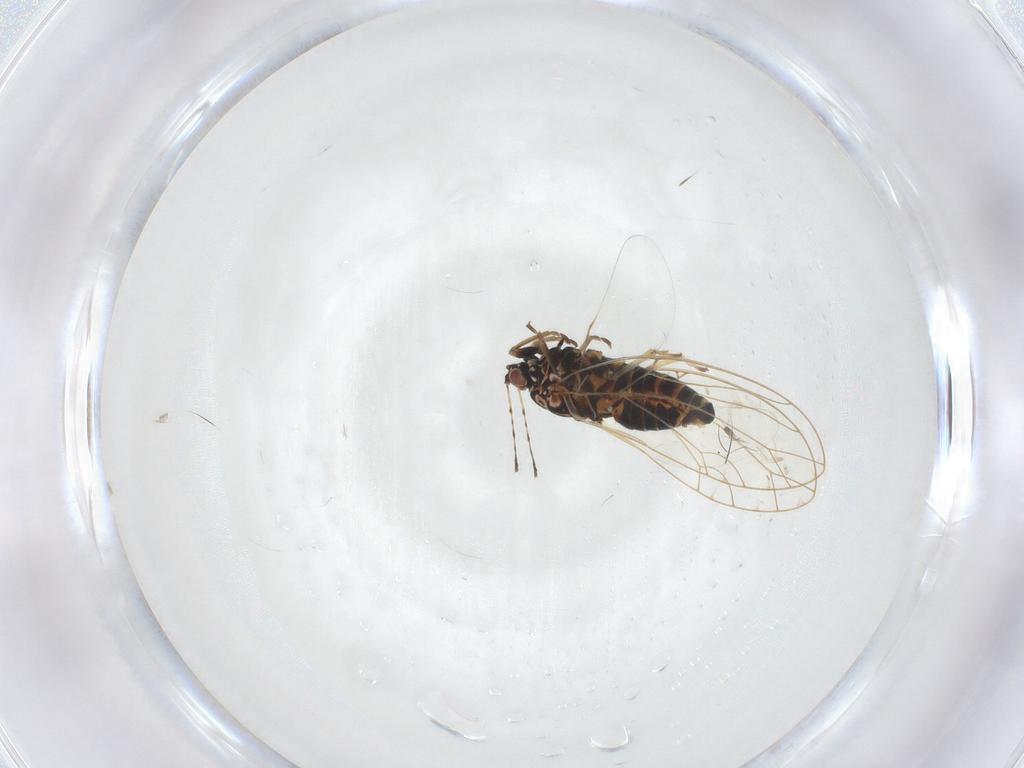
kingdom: Animalia
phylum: Arthropoda
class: Insecta
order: Hemiptera
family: Triozidae
